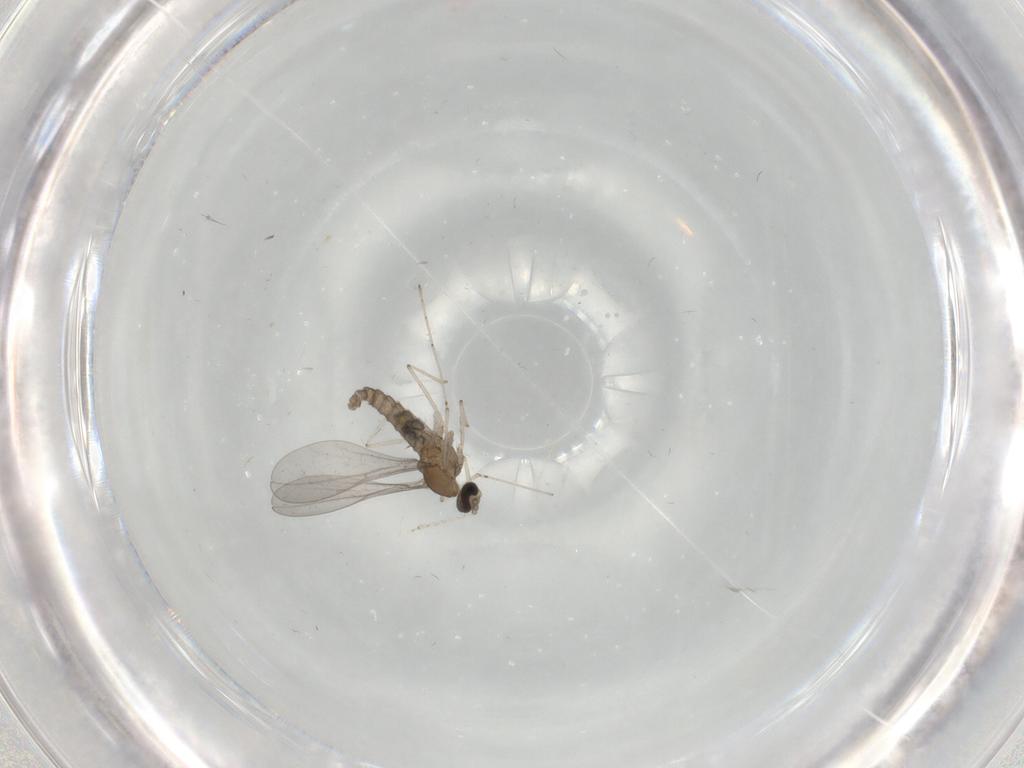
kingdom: Animalia
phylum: Arthropoda
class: Insecta
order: Diptera
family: Cecidomyiidae
